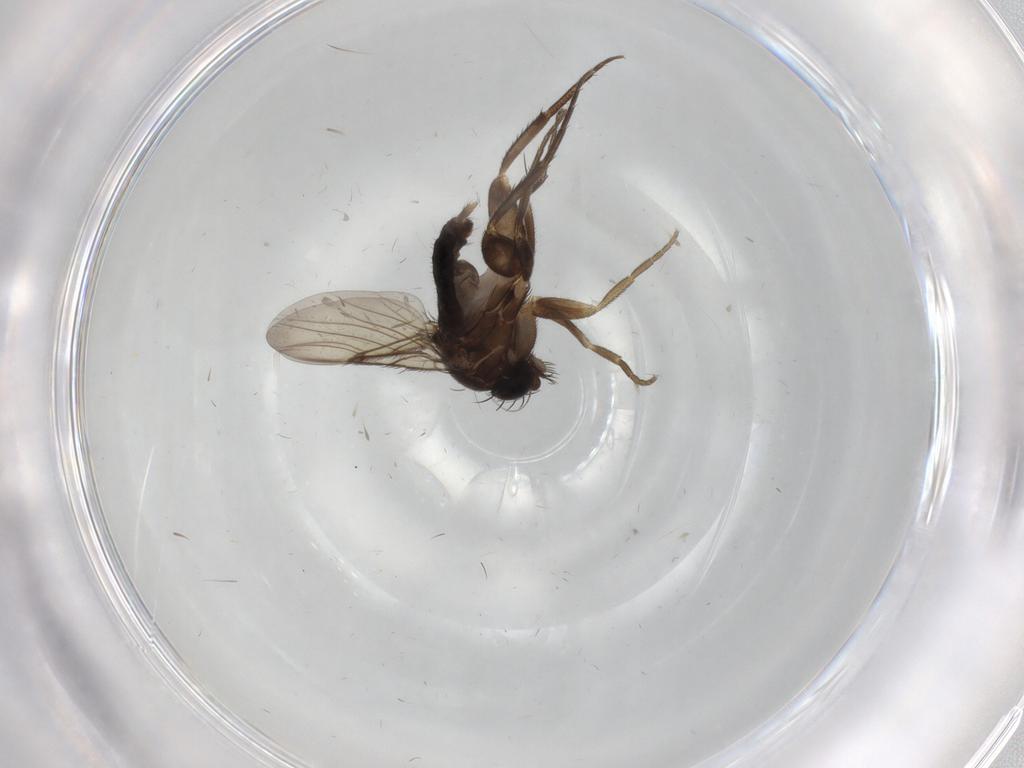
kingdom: Animalia
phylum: Arthropoda
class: Insecta
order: Diptera
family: Phoridae
